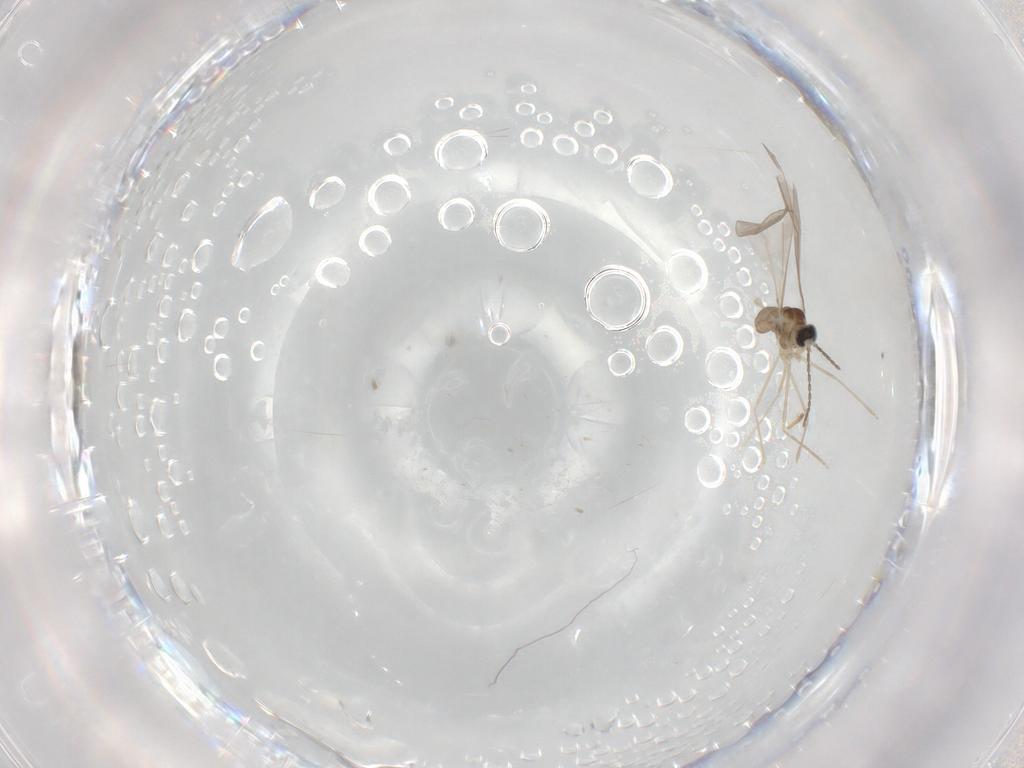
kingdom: Animalia
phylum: Arthropoda
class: Insecta
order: Diptera
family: Cecidomyiidae
